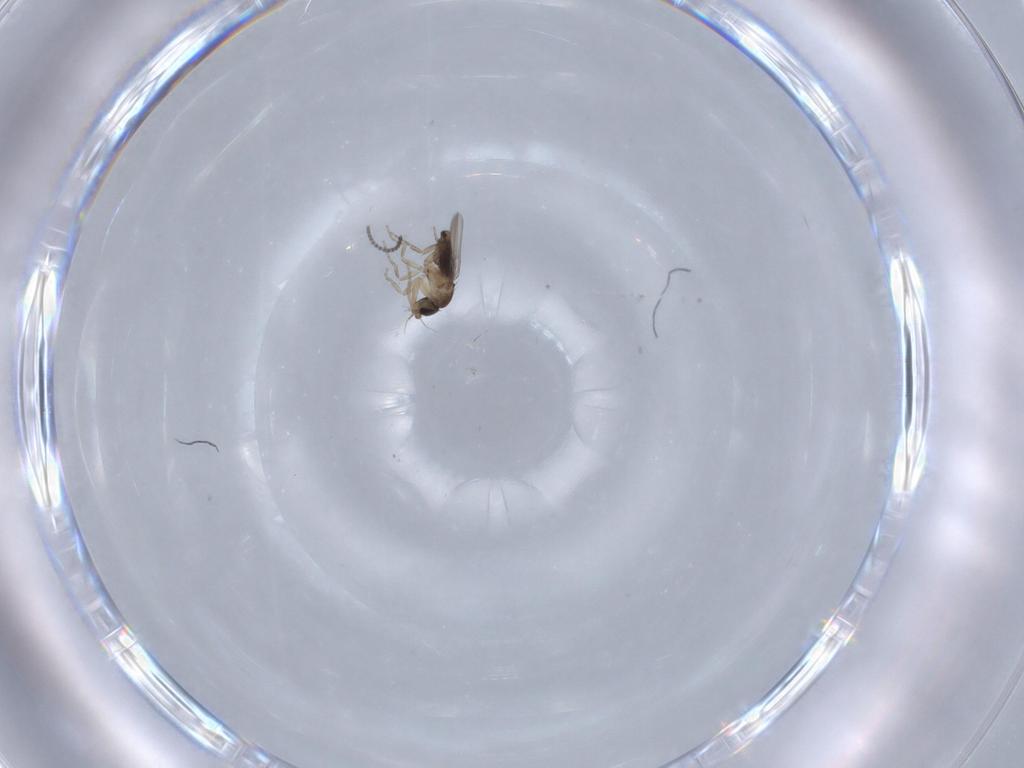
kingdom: Animalia
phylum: Arthropoda
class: Insecta
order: Diptera
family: Phoridae
